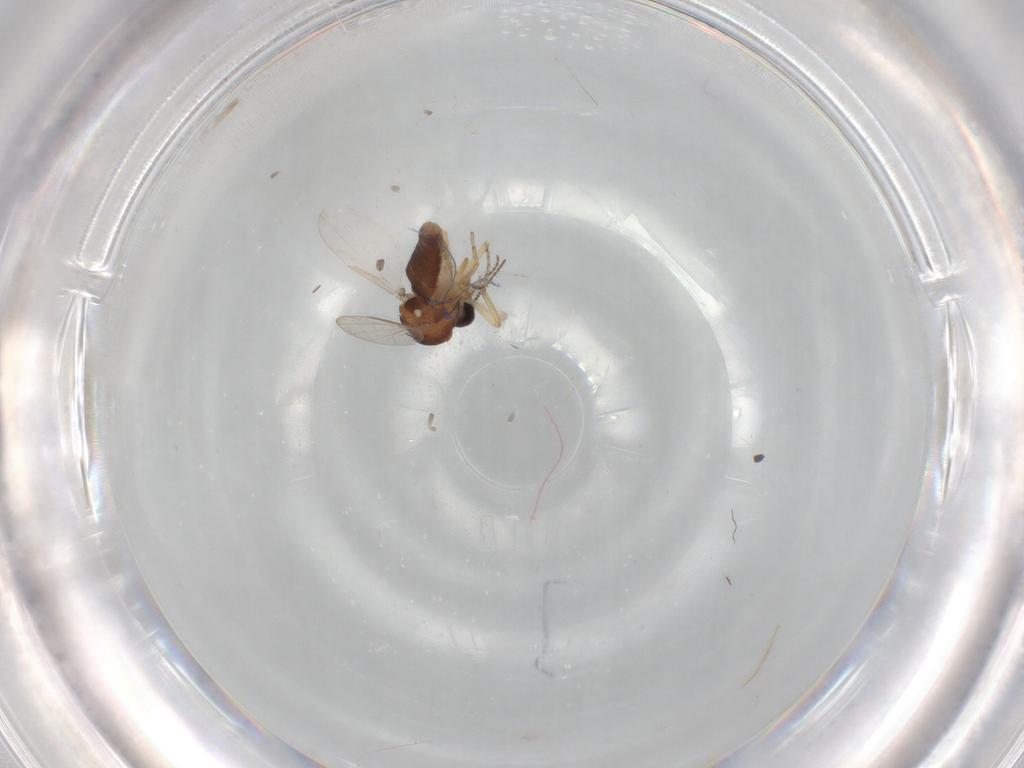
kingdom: Animalia
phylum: Arthropoda
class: Insecta
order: Diptera
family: Ceratopogonidae
